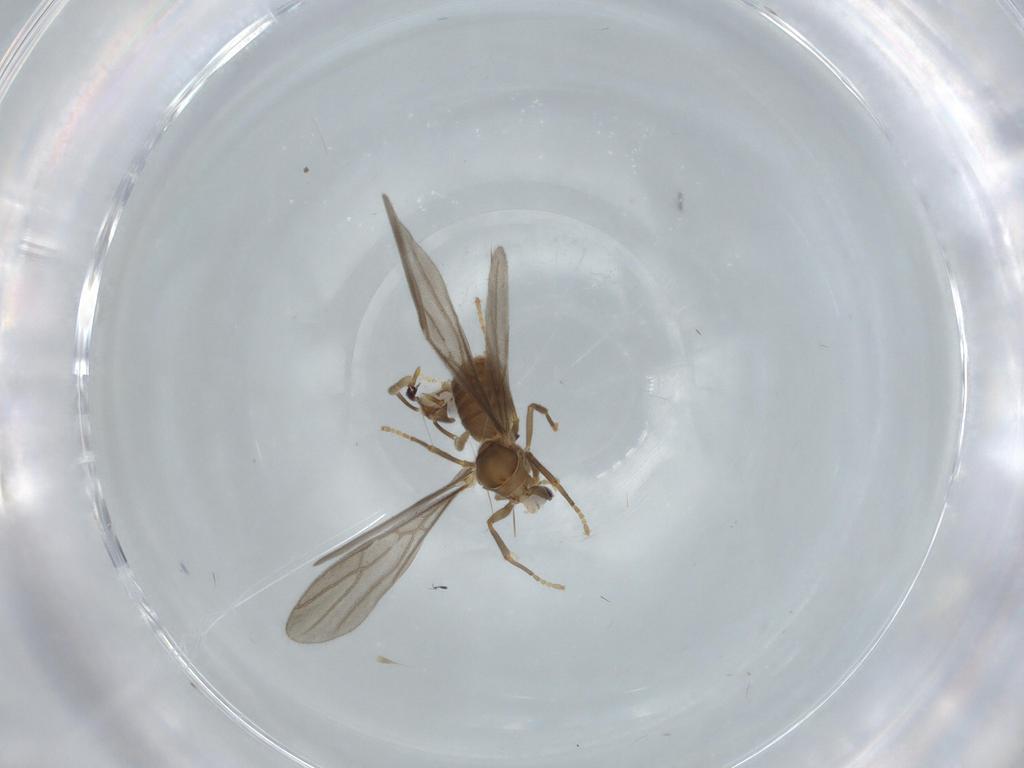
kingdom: Animalia
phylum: Arthropoda
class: Insecta
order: Hymenoptera
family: Formicidae
